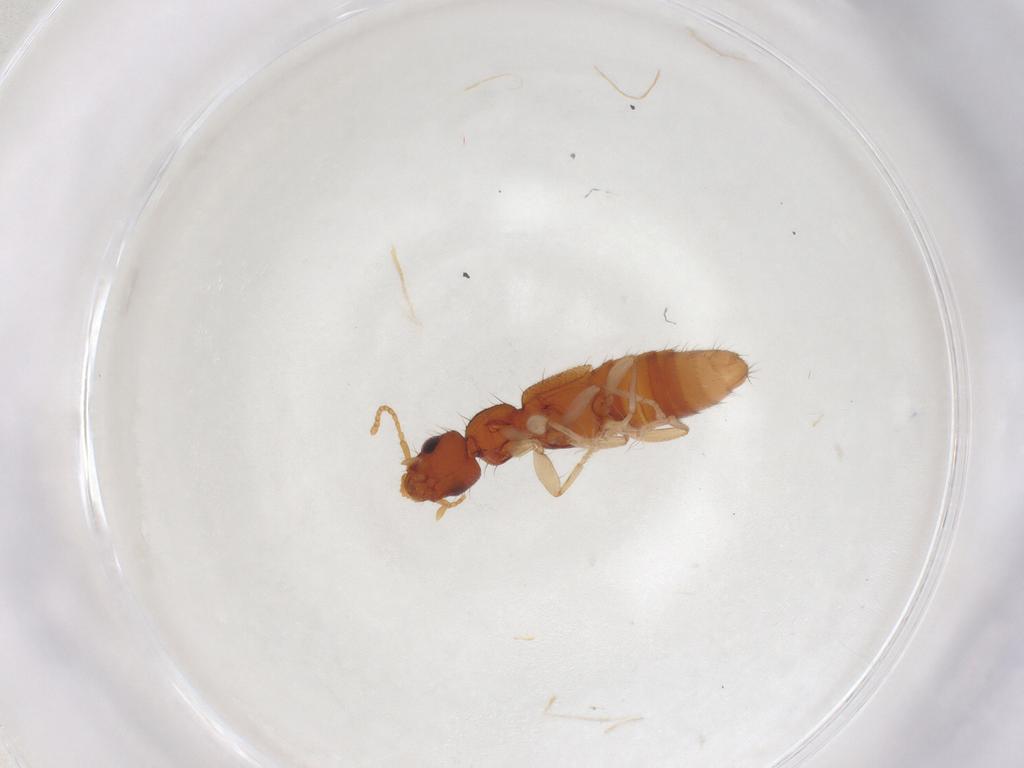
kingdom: Animalia
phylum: Arthropoda
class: Insecta
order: Coleoptera
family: Staphylinidae
